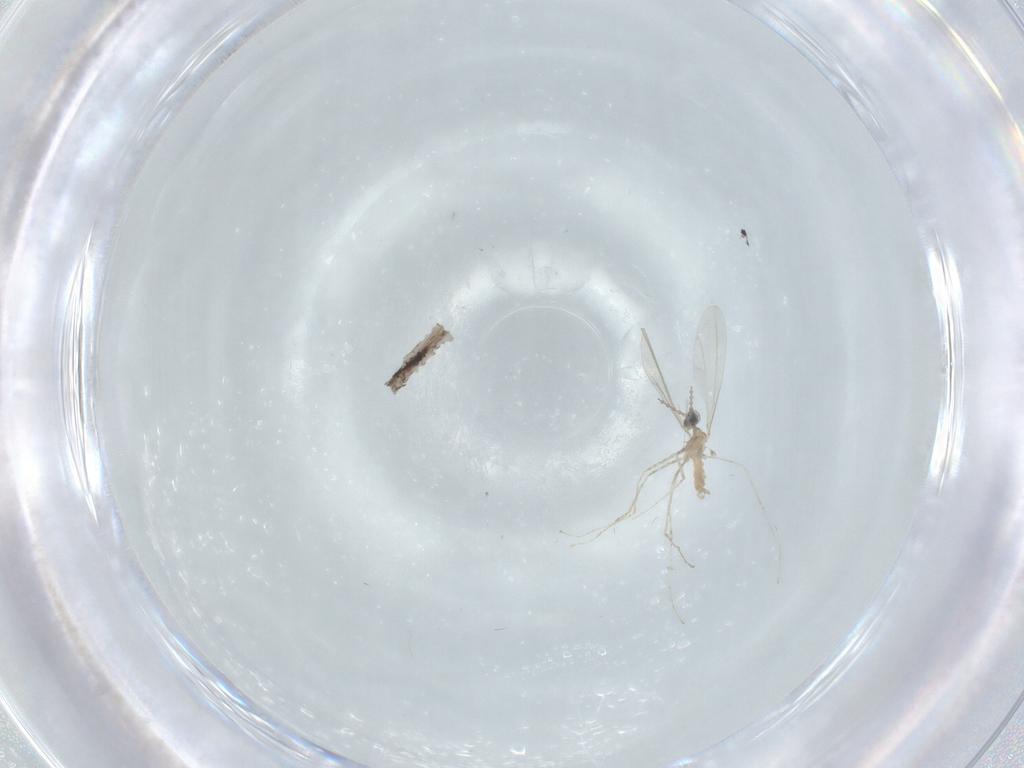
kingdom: Animalia
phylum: Arthropoda
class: Insecta
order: Diptera
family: Cecidomyiidae
